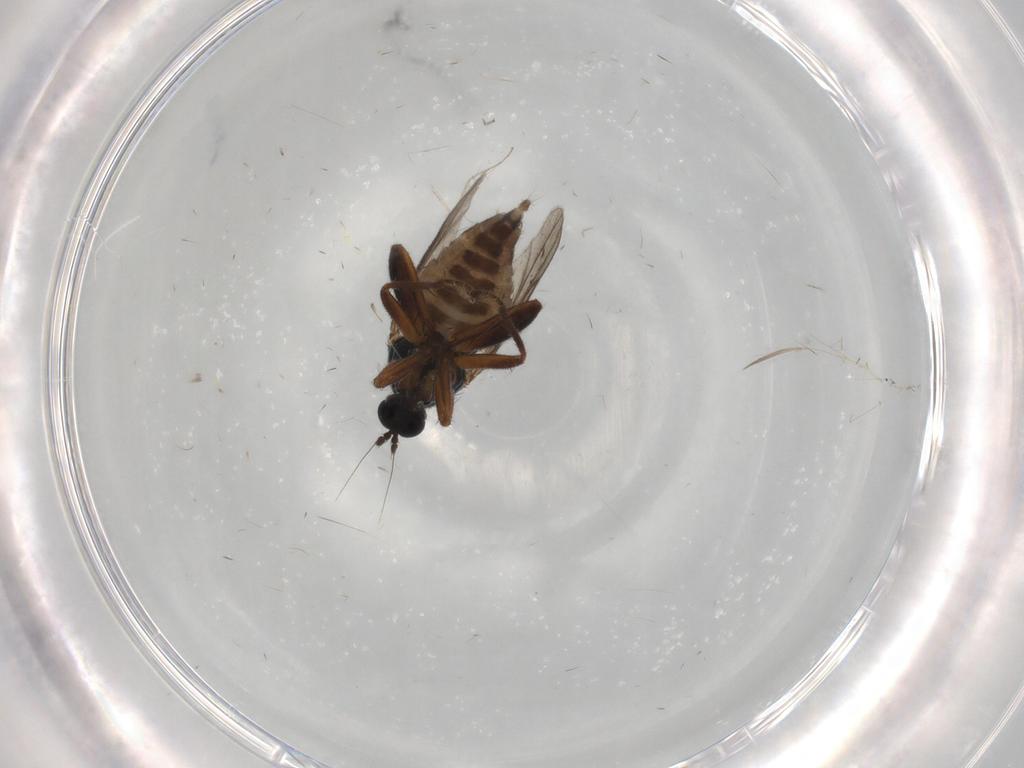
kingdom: Animalia
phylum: Arthropoda
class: Insecta
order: Diptera
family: Hybotidae
